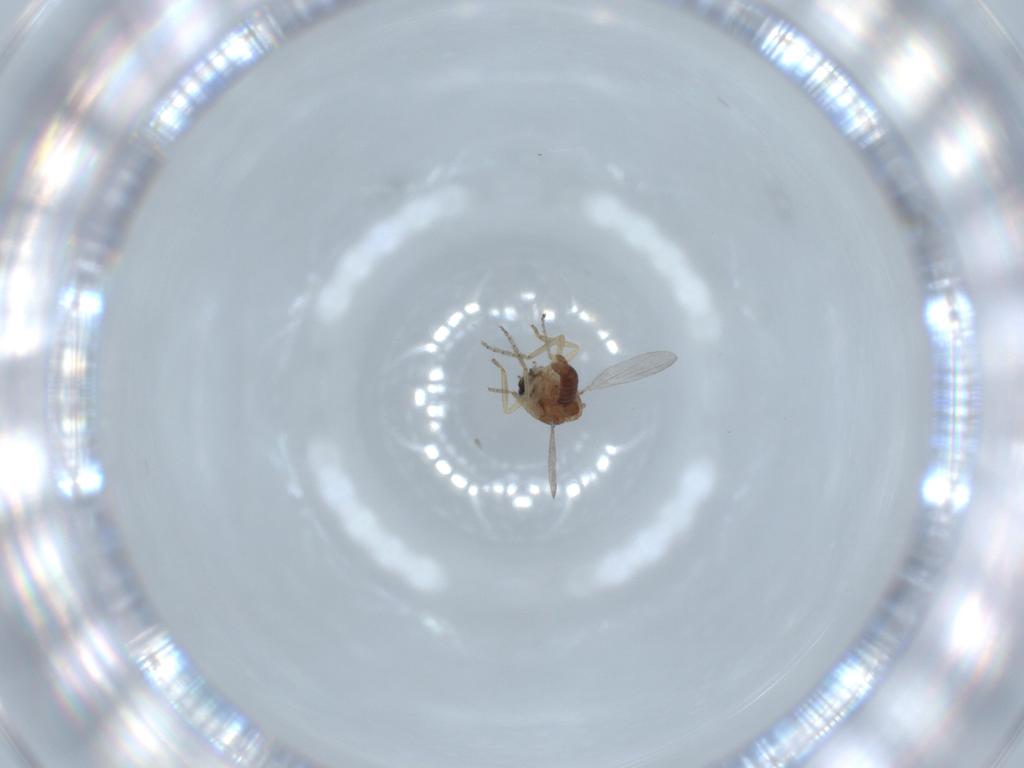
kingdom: Animalia
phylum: Arthropoda
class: Insecta
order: Diptera
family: Ceratopogonidae
